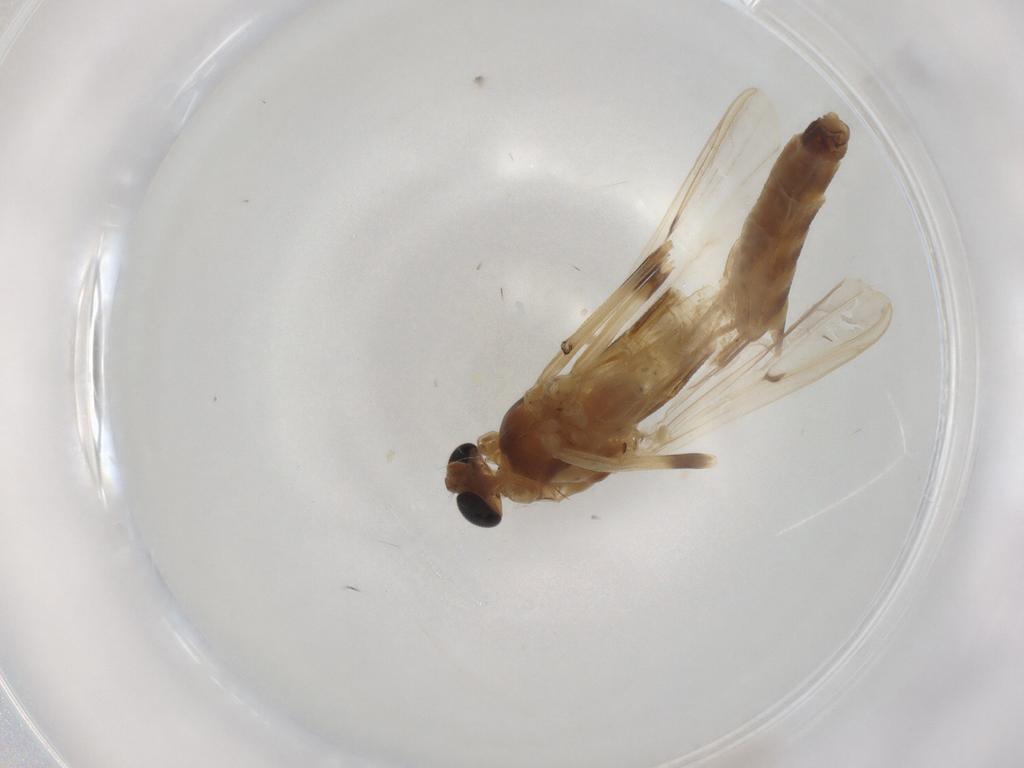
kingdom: Animalia
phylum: Arthropoda
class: Insecta
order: Diptera
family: Sciaridae
